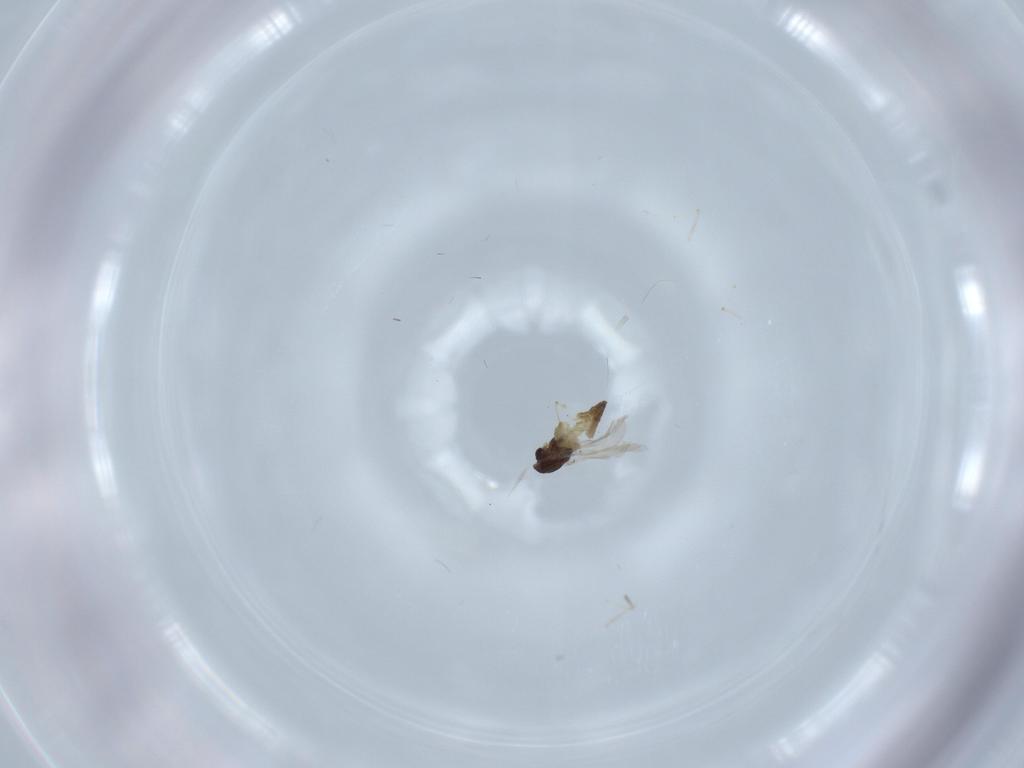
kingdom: Animalia
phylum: Arthropoda
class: Insecta
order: Diptera
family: Chironomidae
